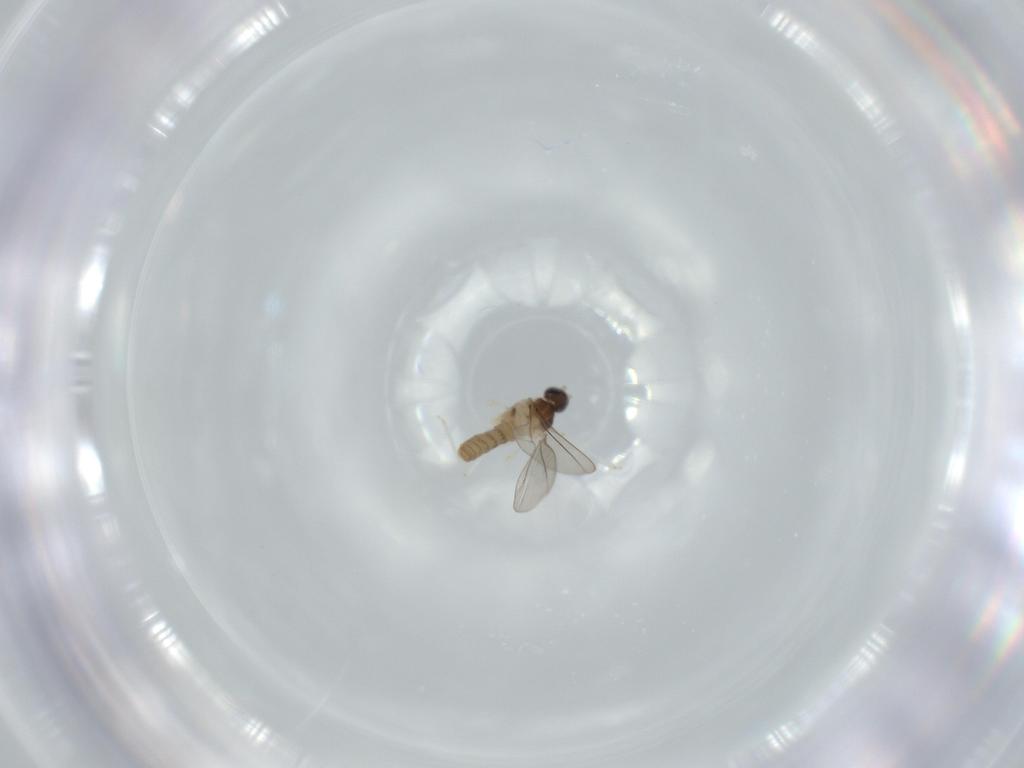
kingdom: Animalia
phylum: Arthropoda
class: Insecta
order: Diptera
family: Cecidomyiidae
